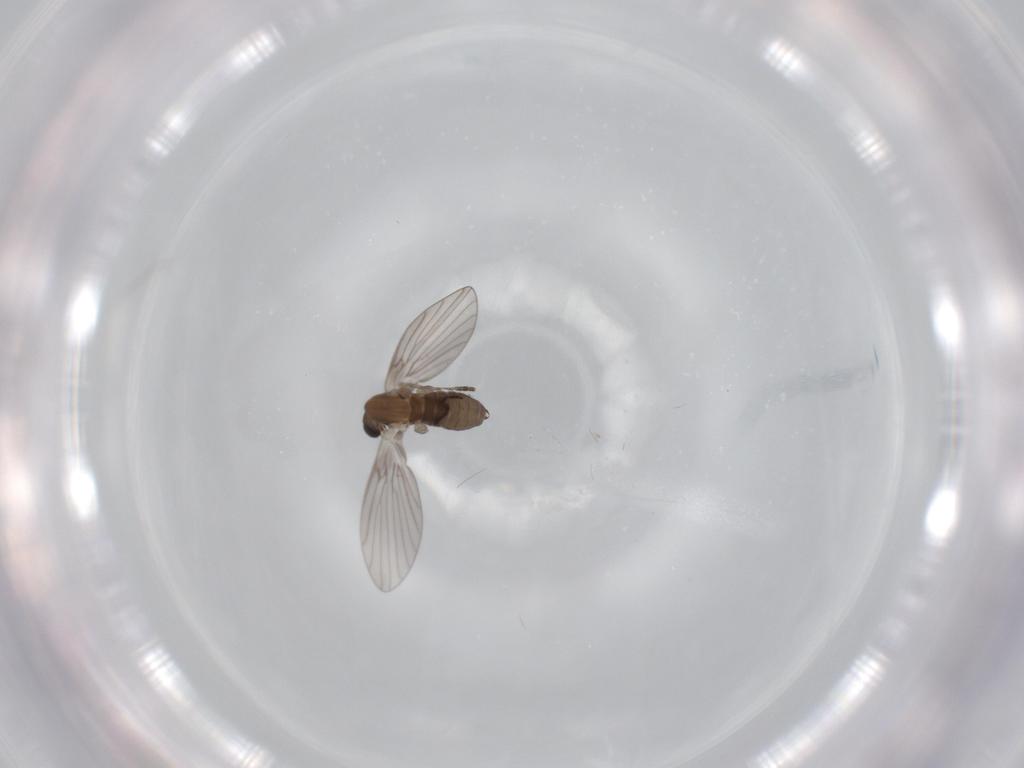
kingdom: Animalia
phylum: Arthropoda
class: Insecta
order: Diptera
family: Psychodidae
